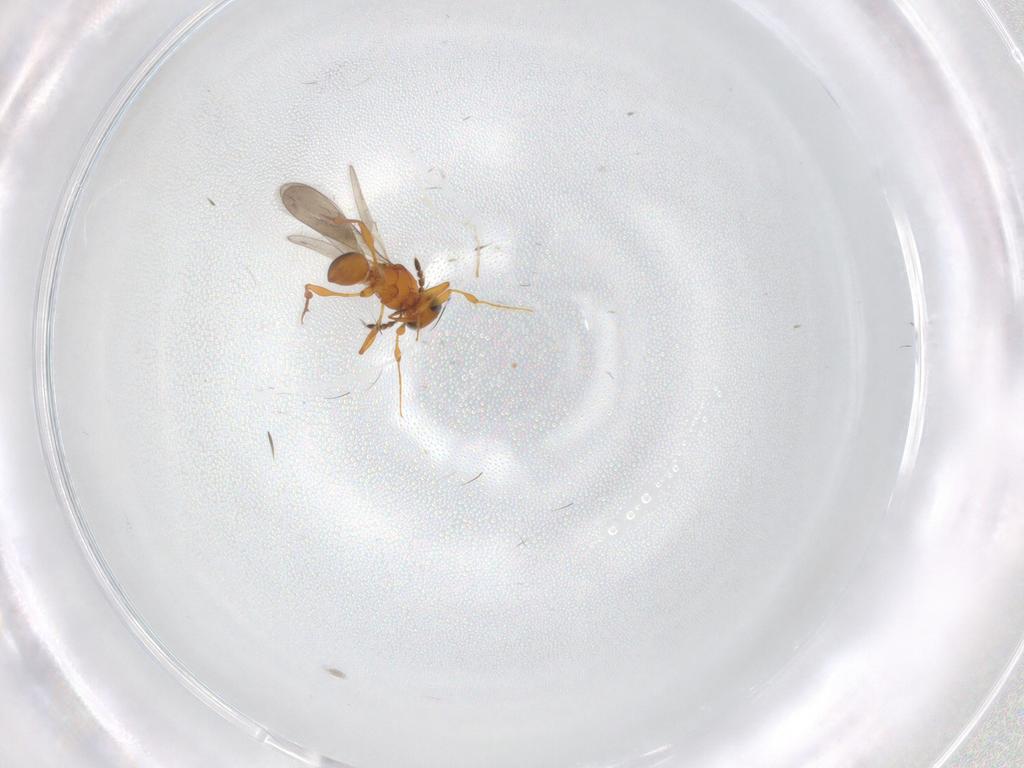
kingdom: Animalia
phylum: Arthropoda
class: Insecta
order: Hymenoptera
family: Platygastridae
